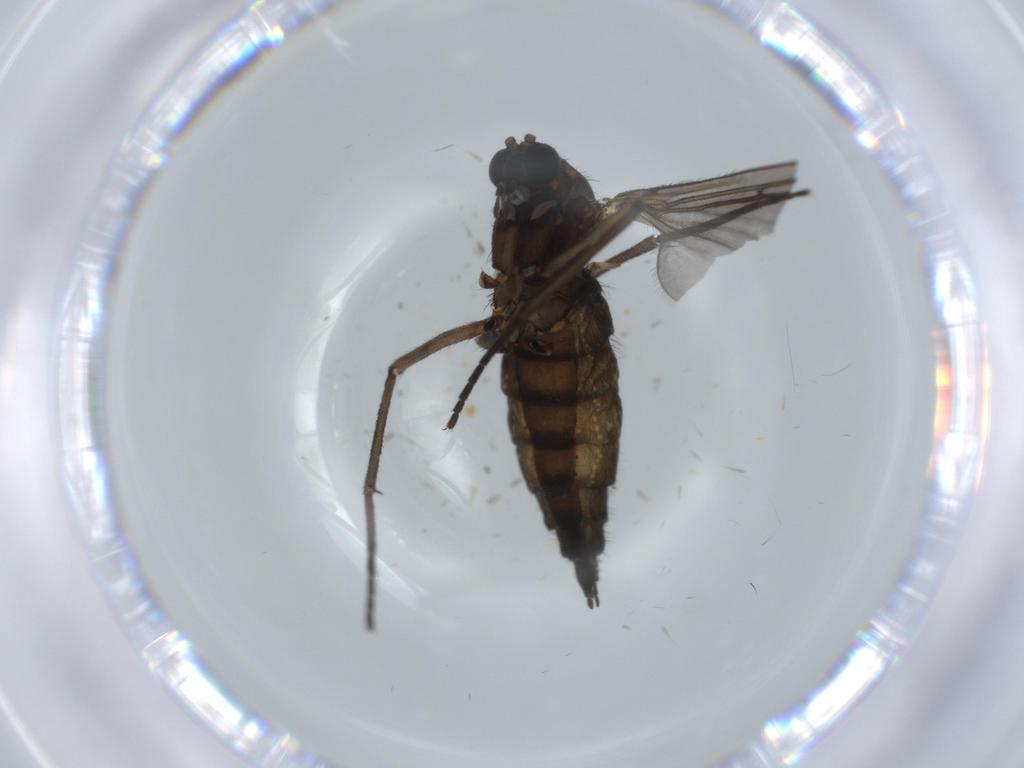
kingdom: Animalia
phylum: Arthropoda
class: Insecta
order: Diptera
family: Sciaridae
